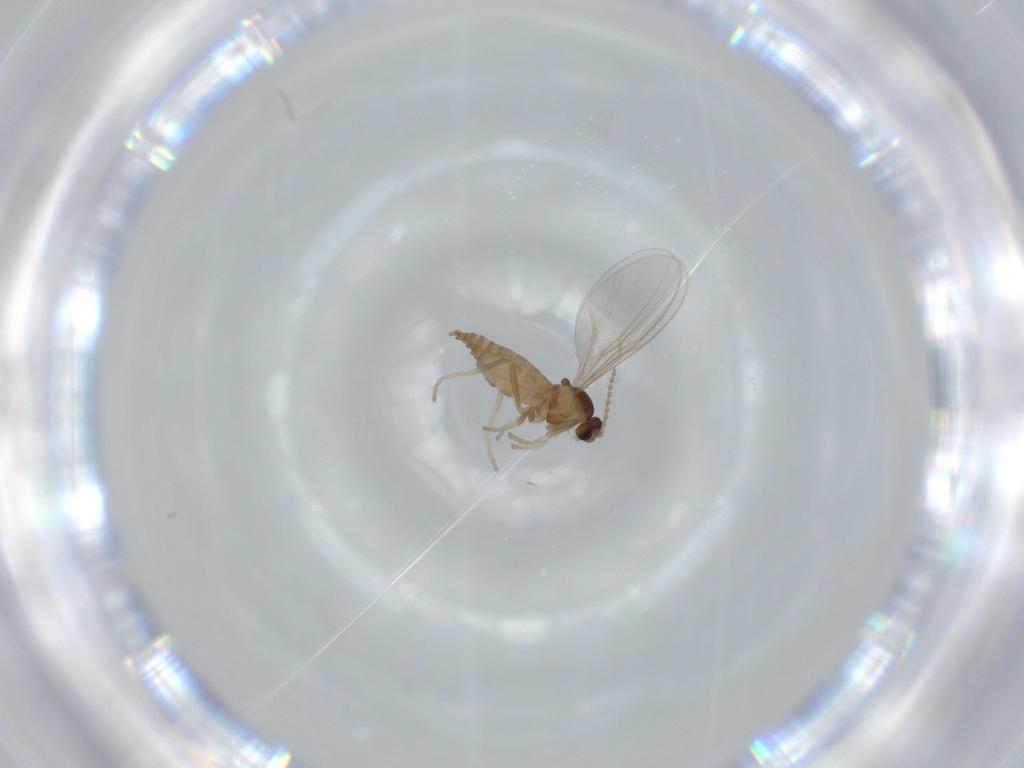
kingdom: Animalia
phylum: Arthropoda
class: Insecta
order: Diptera
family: Cecidomyiidae
